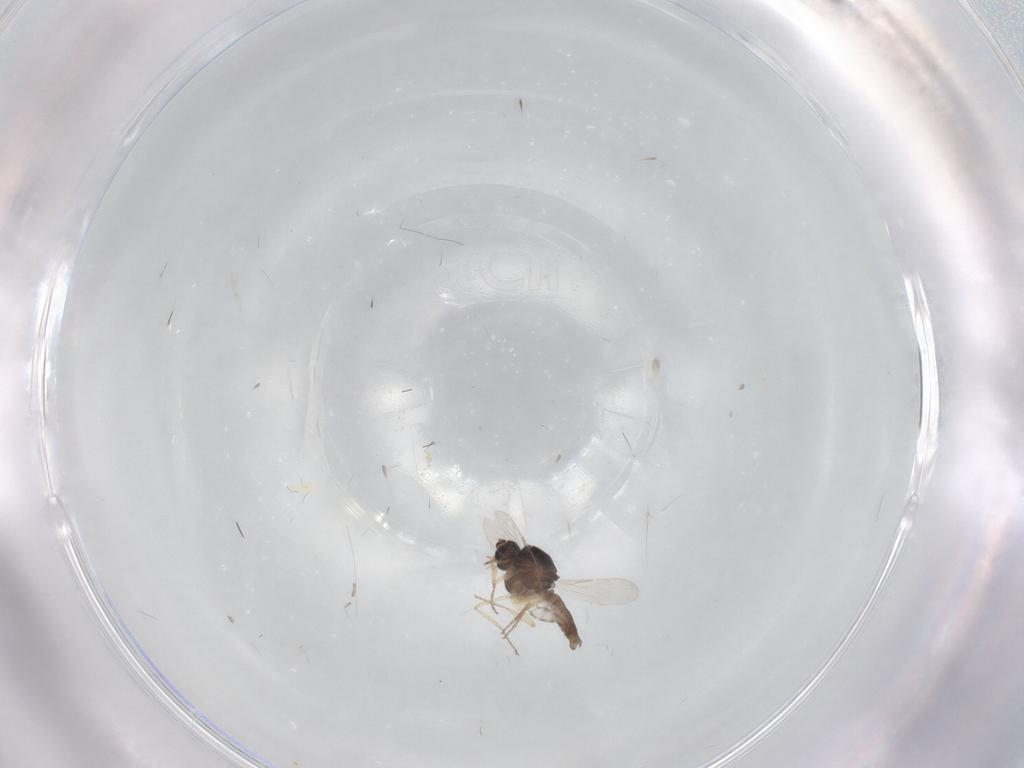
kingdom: Animalia
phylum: Arthropoda
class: Insecta
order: Diptera
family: Ceratopogonidae
